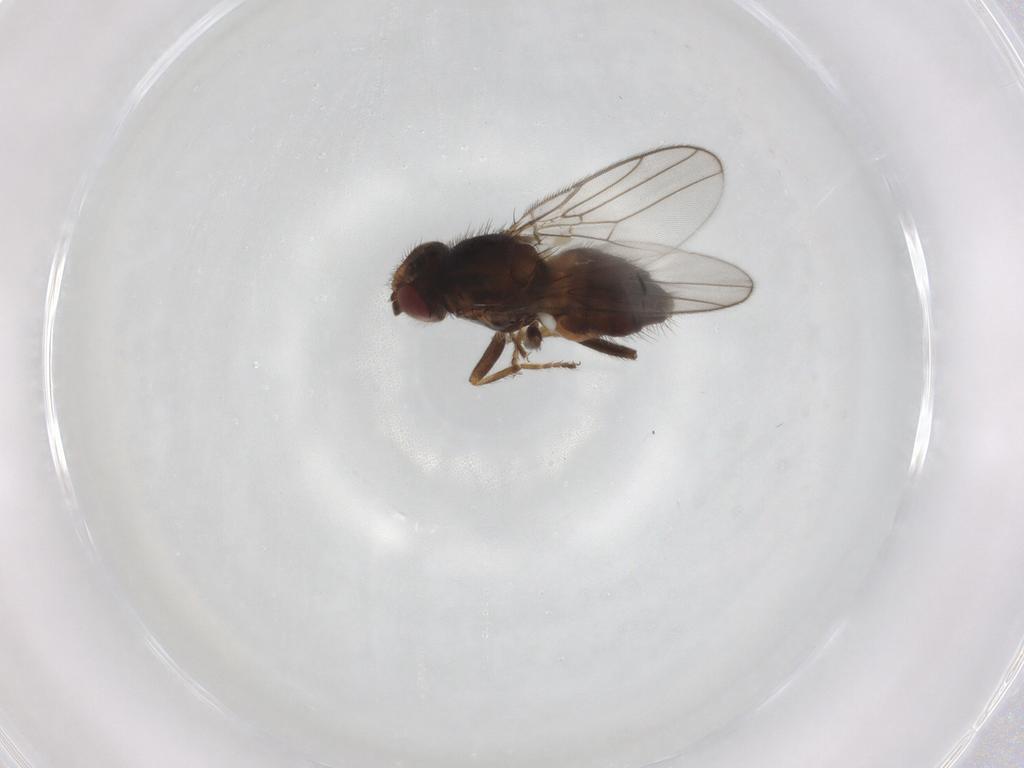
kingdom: Animalia
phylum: Arthropoda
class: Insecta
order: Diptera
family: Chloropidae
